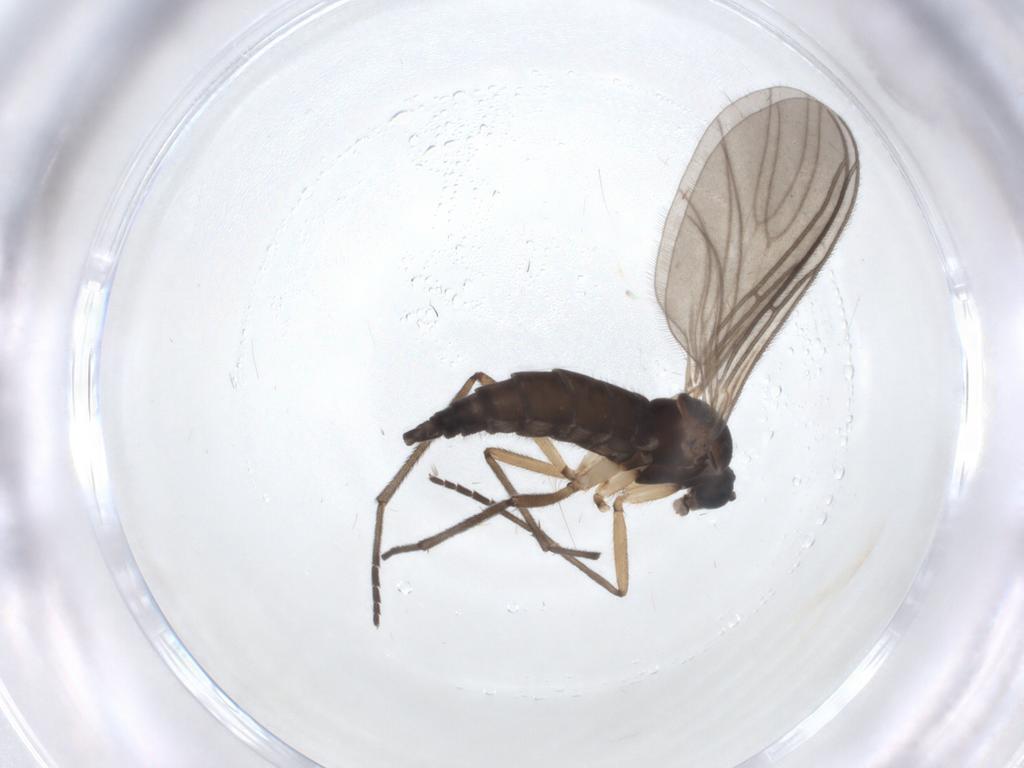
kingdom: Animalia
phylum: Arthropoda
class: Insecta
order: Diptera
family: Sciaridae
